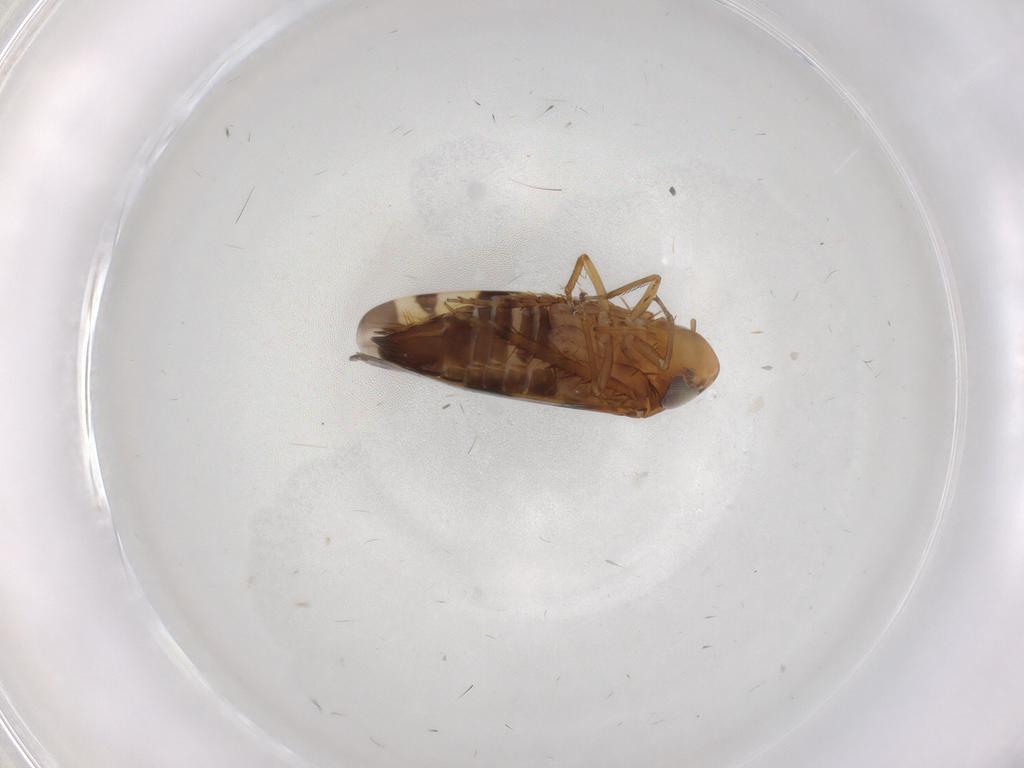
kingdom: Animalia
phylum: Arthropoda
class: Insecta
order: Hemiptera
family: Cicadellidae
